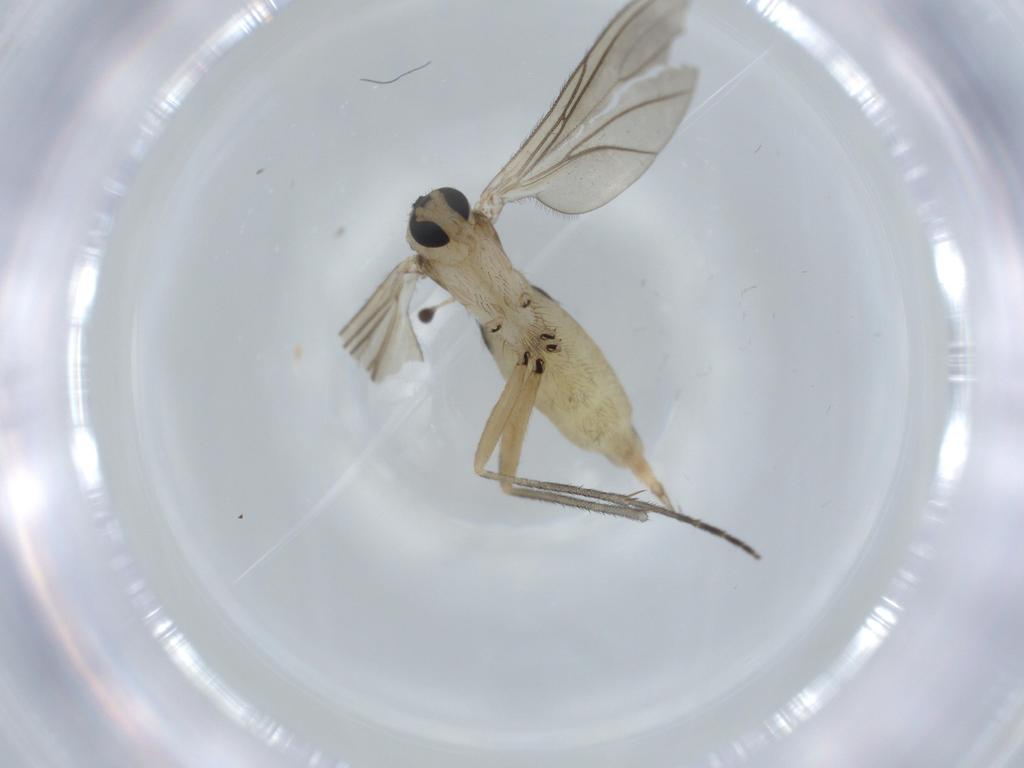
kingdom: Animalia
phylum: Arthropoda
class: Insecta
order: Diptera
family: Sciaridae
